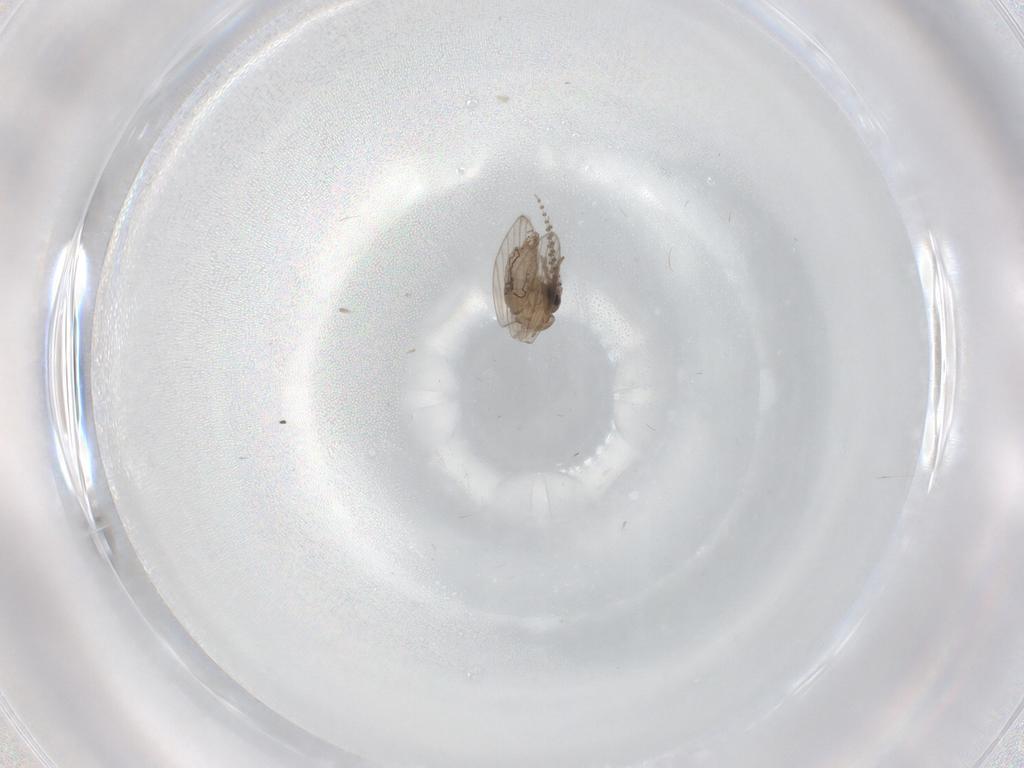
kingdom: Animalia
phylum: Arthropoda
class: Insecta
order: Diptera
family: Psychodidae
